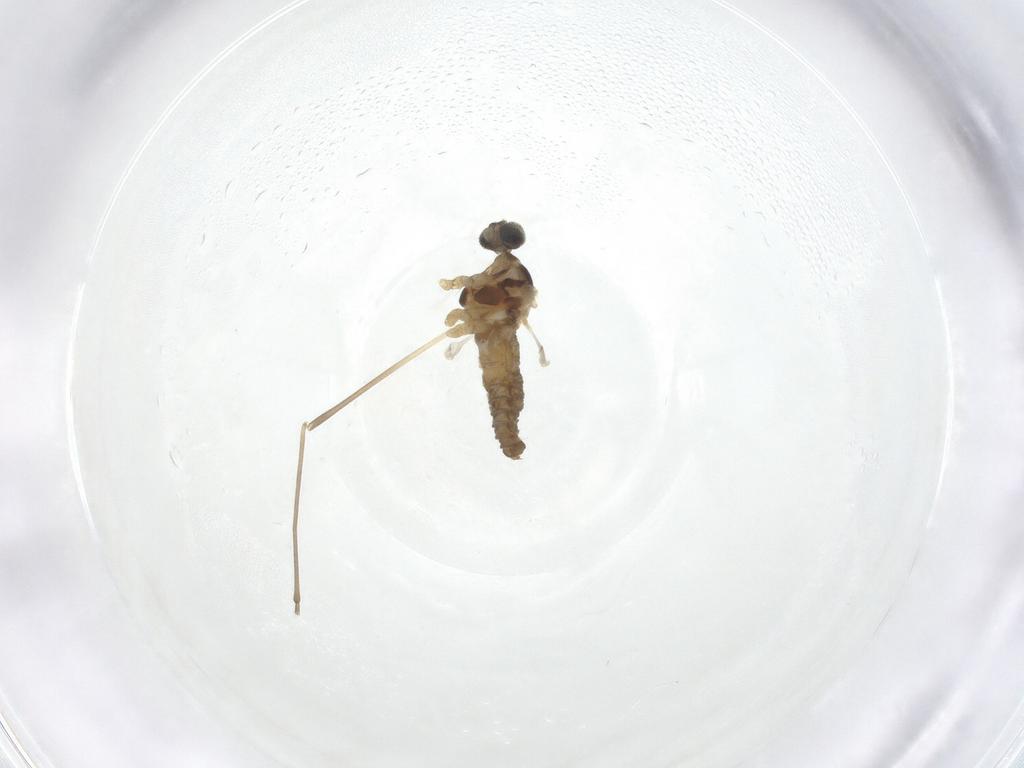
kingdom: Animalia
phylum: Arthropoda
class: Insecta
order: Diptera
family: Cecidomyiidae
